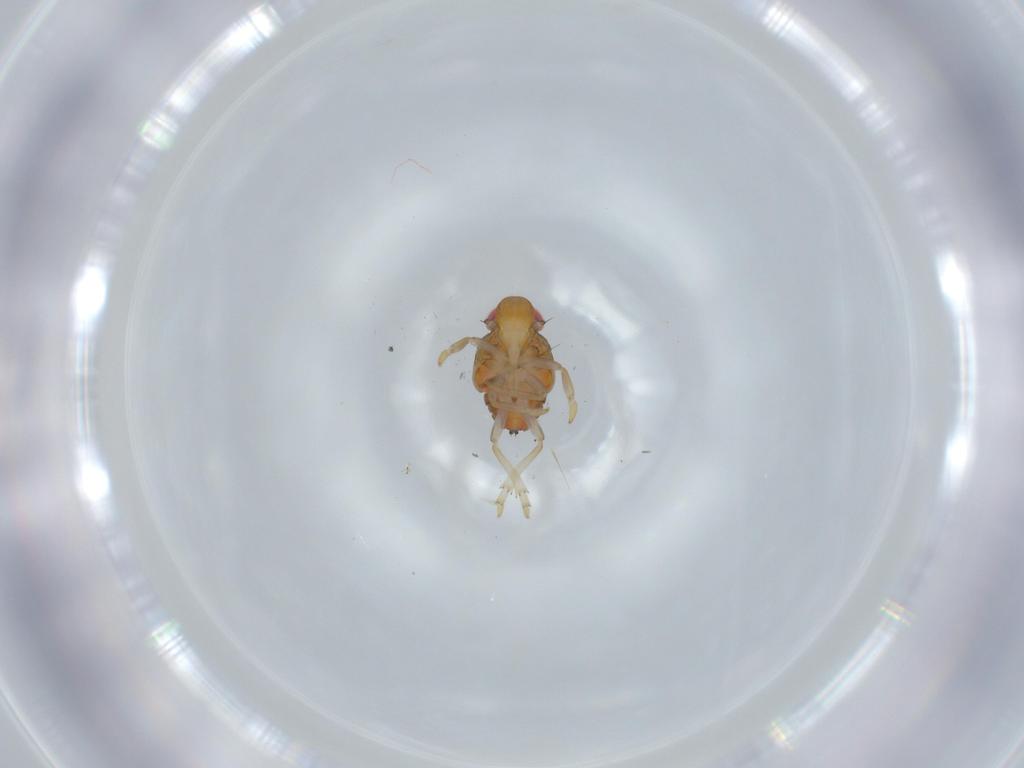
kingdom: Animalia
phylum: Arthropoda
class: Insecta
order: Hemiptera
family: Issidae
